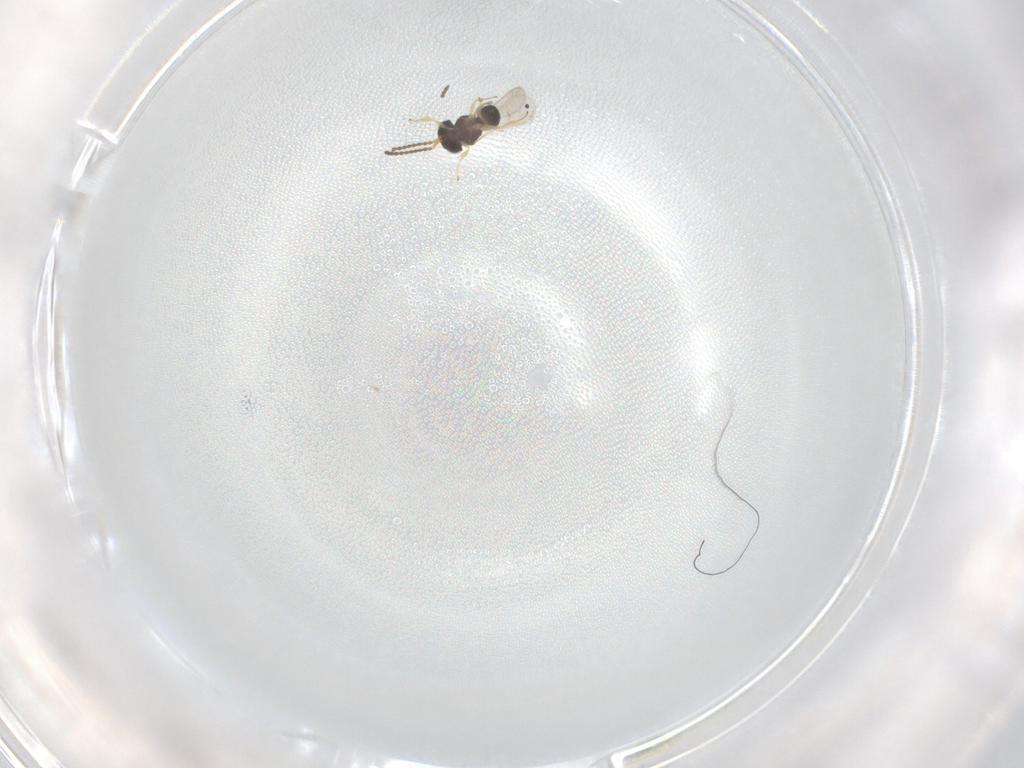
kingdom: Animalia
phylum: Arthropoda
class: Insecta
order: Hymenoptera
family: Scelionidae
